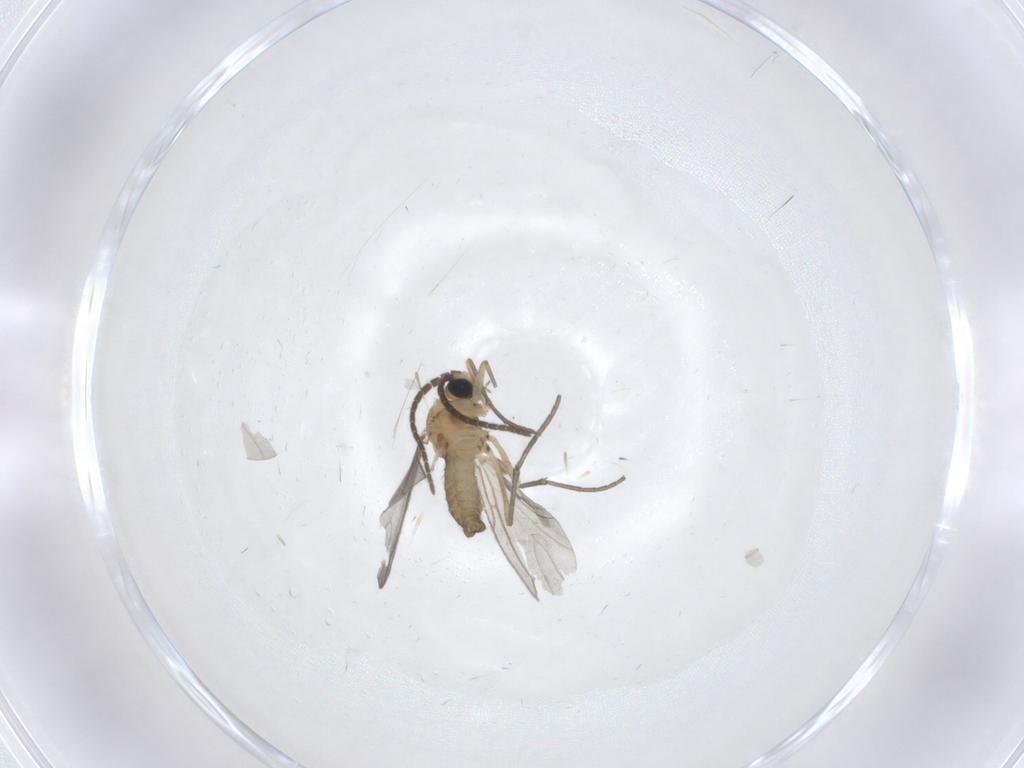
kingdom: Animalia
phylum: Arthropoda
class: Insecta
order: Diptera
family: Sciaridae
